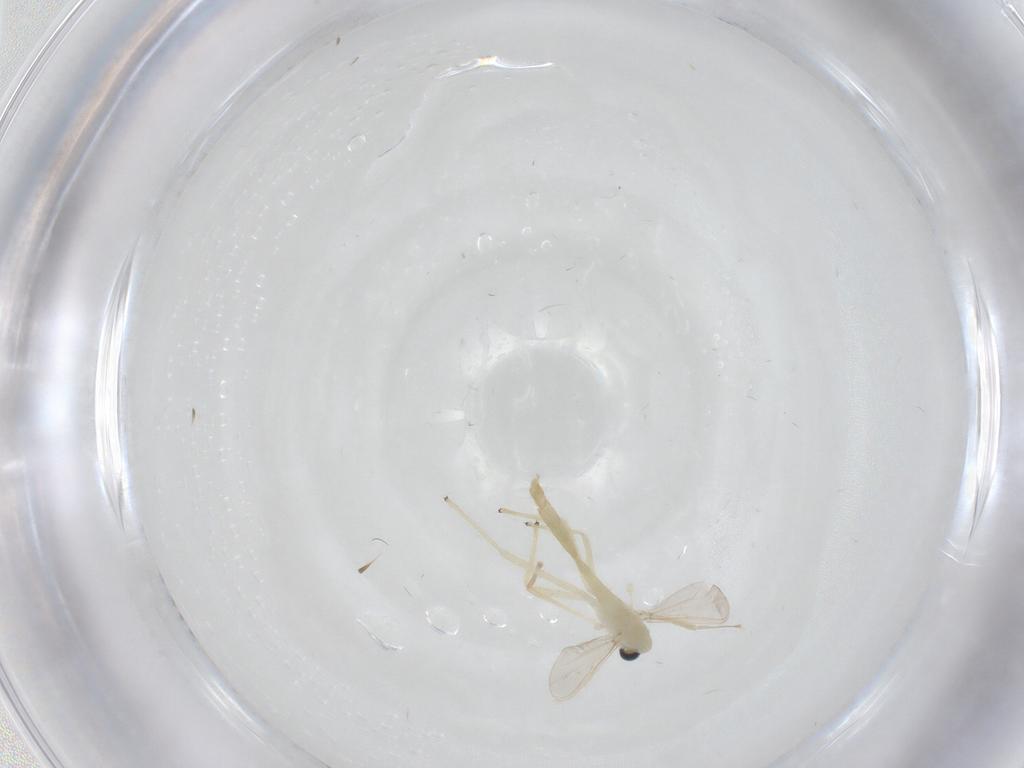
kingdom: Animalia
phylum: Arthropoda
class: Insecta
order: Diptera
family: Chironomidae
